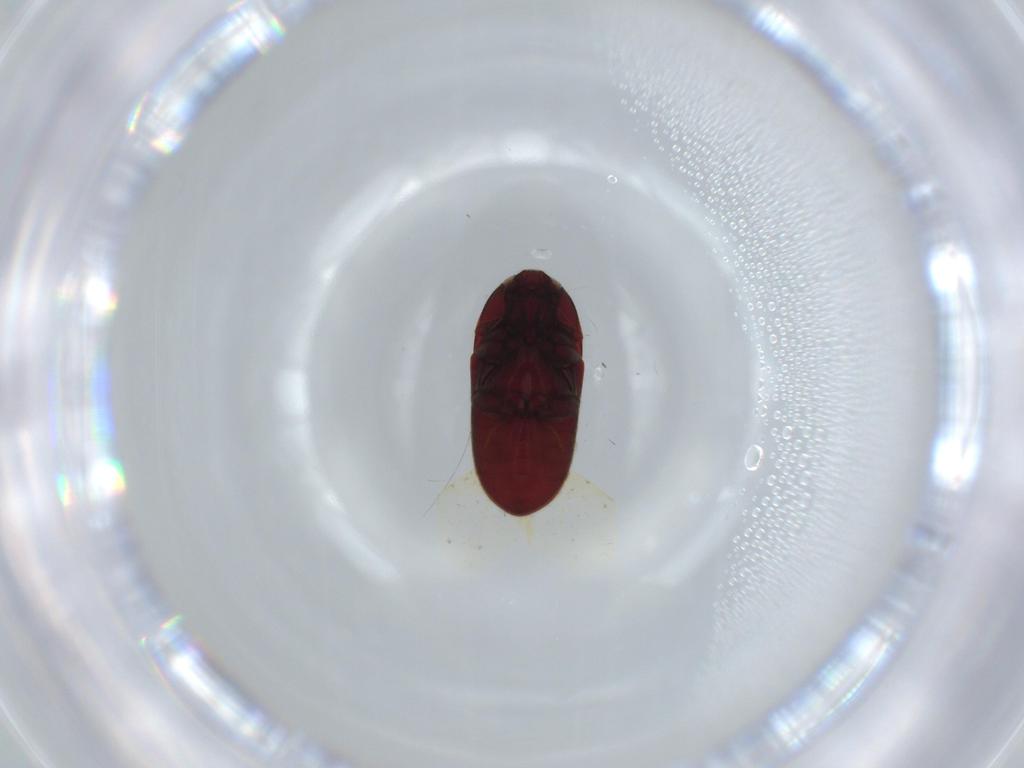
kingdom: Animalia
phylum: Arthropoda
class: Insecta
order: Coleoptera
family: Throscidae
